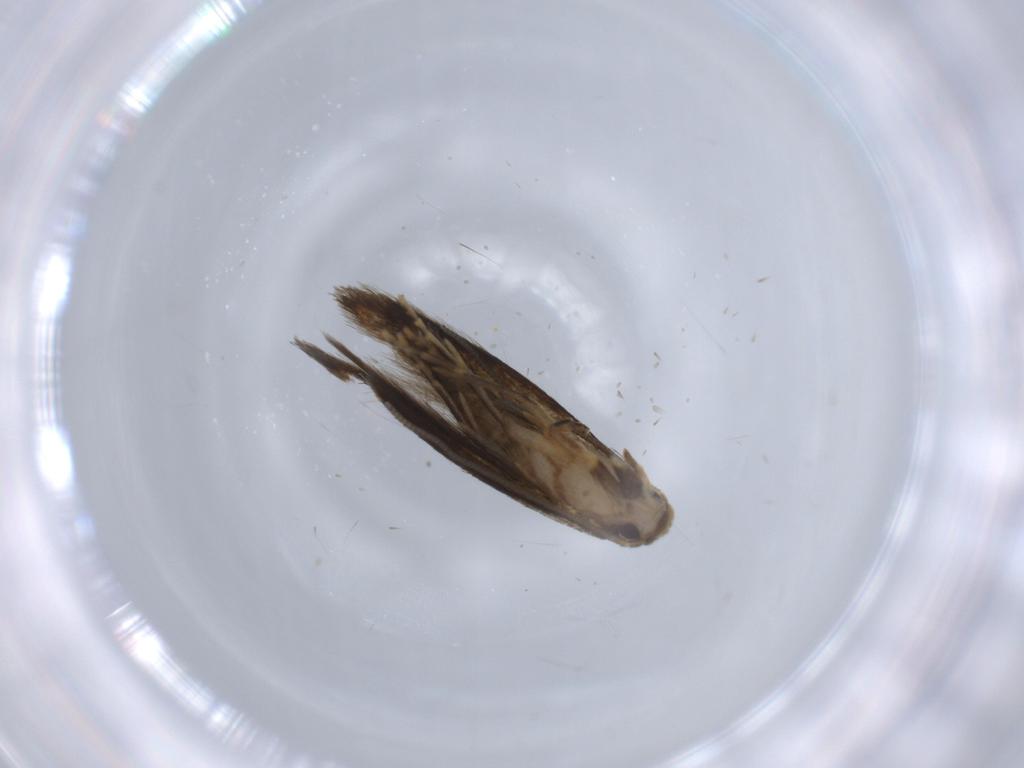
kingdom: Animalia
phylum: Arthropoda
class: Insecta
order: Lepidoptera
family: Tineidae
